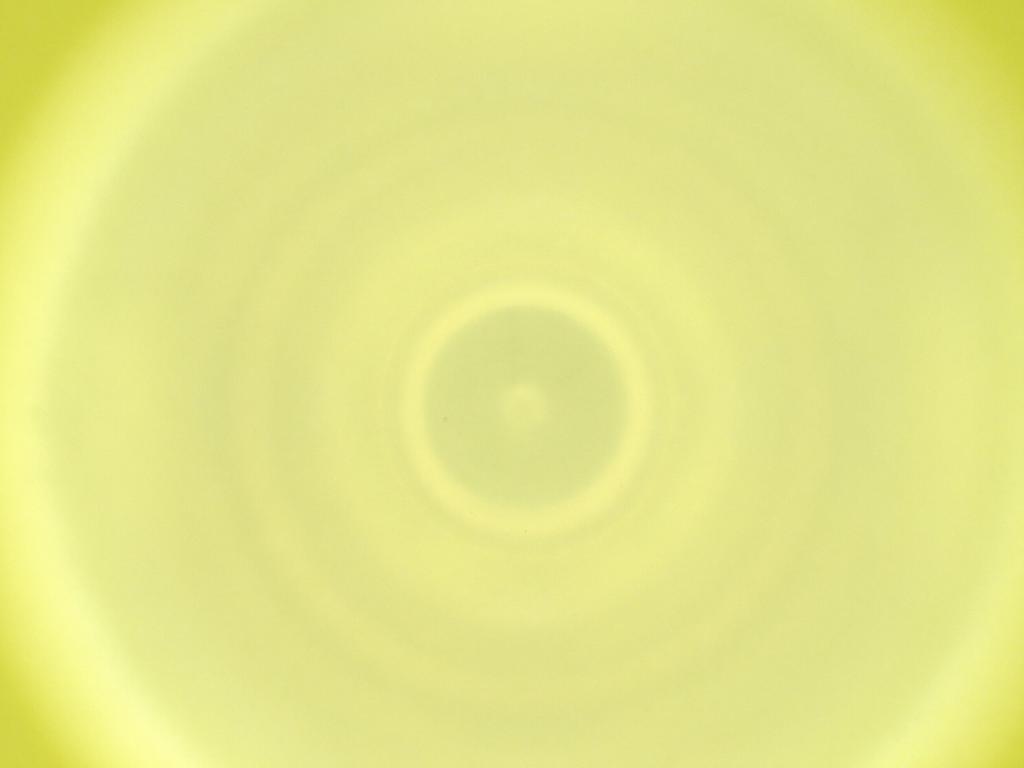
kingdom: Animalia
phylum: Arthropoda
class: Insecta
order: Diptera
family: Cecidomyiidae
